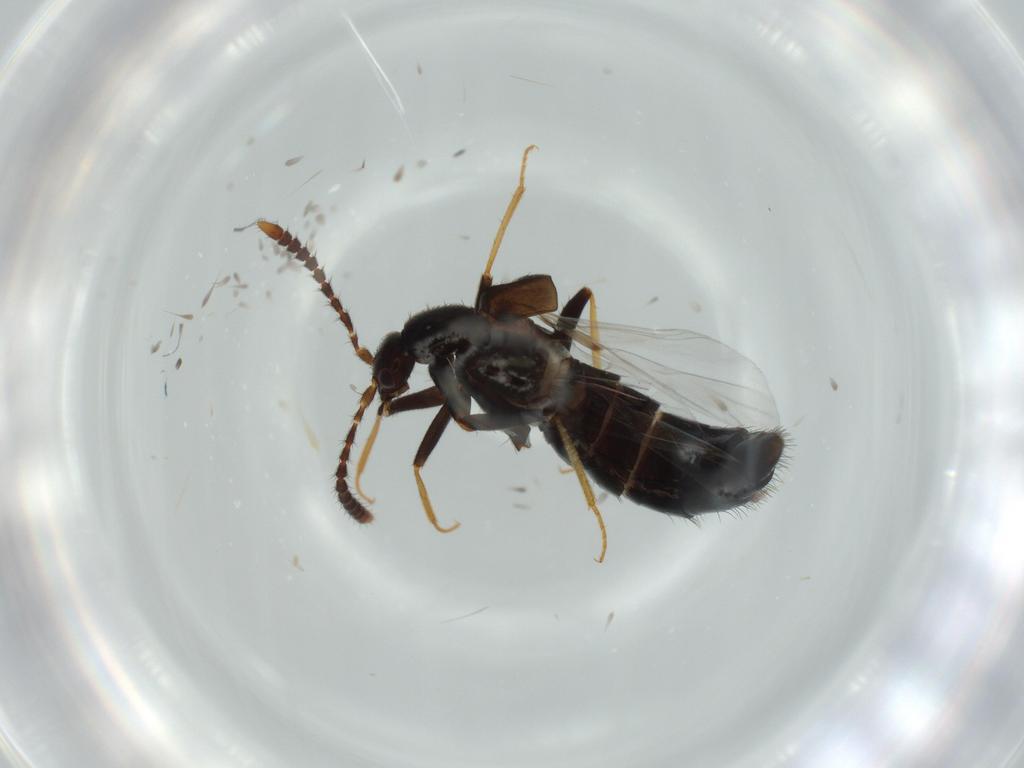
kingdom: Animalia
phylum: Arthropoda
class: Insecta
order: Coleoptera
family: Staphylinidae
